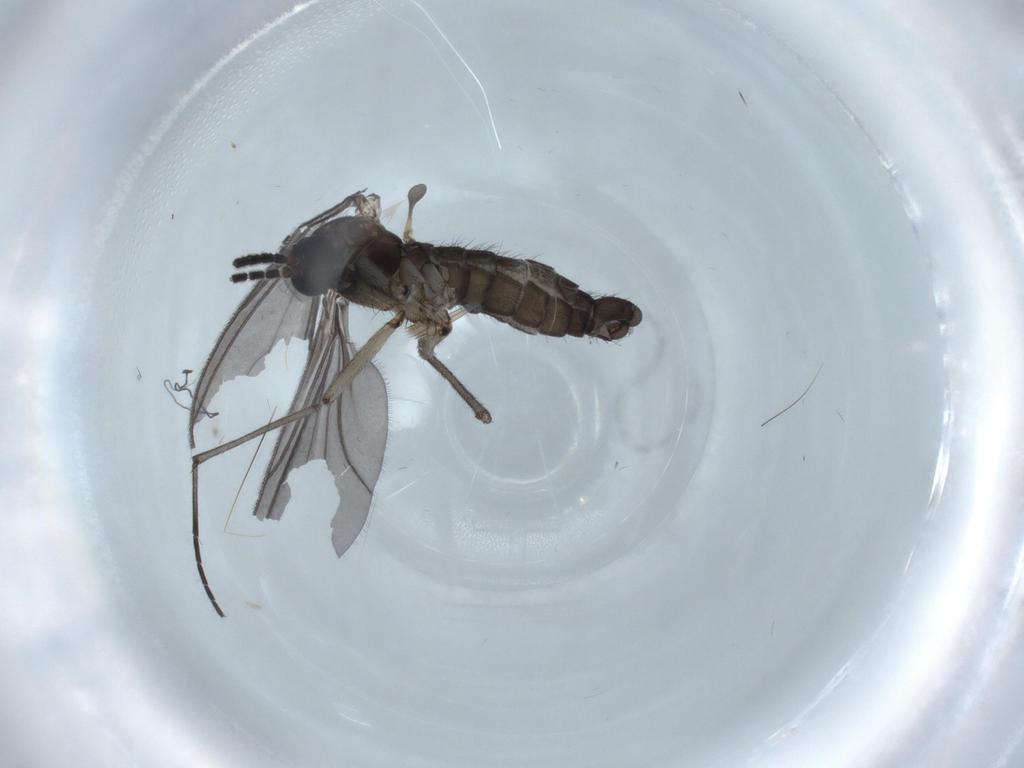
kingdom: Animalia
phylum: Arthropoda
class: Insecta
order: Diptera
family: Sciaridae
